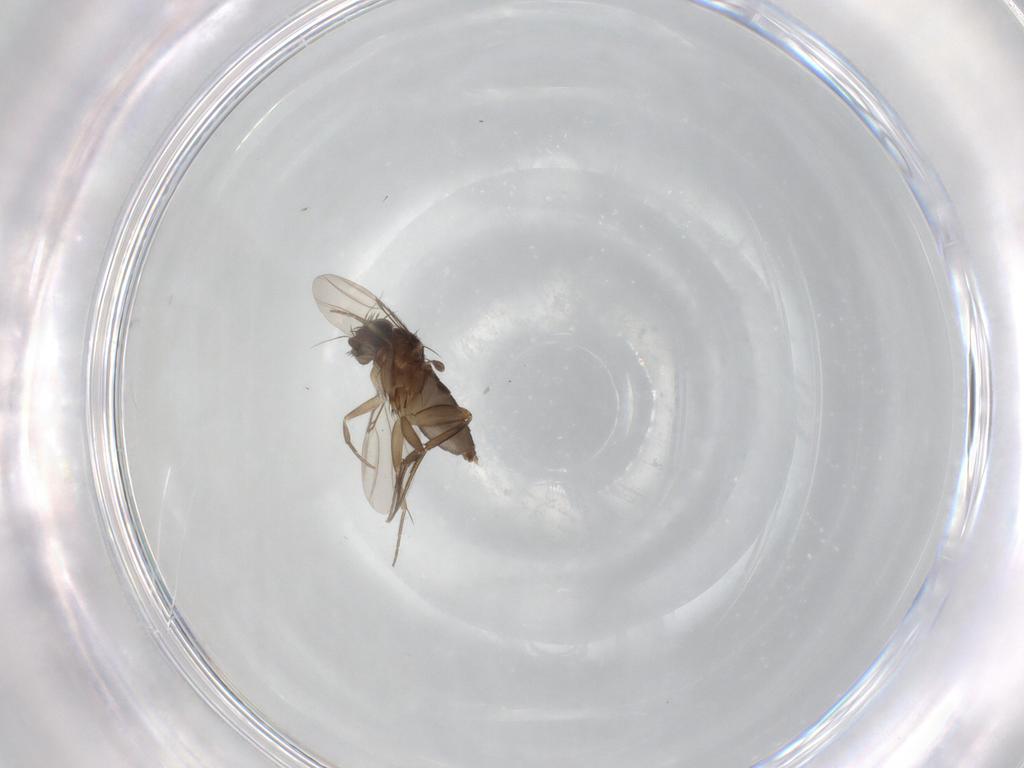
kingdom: Animalia
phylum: Arthropoda
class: Insecta
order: Diptera
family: Phoridae
